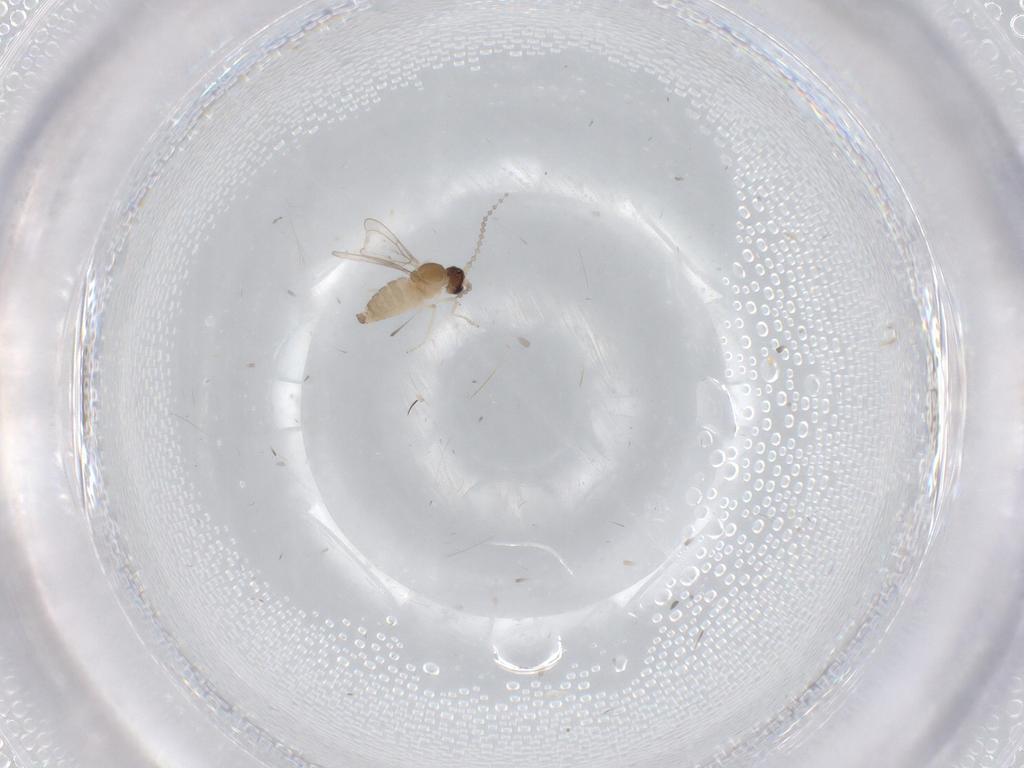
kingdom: Animalia
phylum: Arthropoda
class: Insecta
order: Diptera
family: Cecidomyiidae
